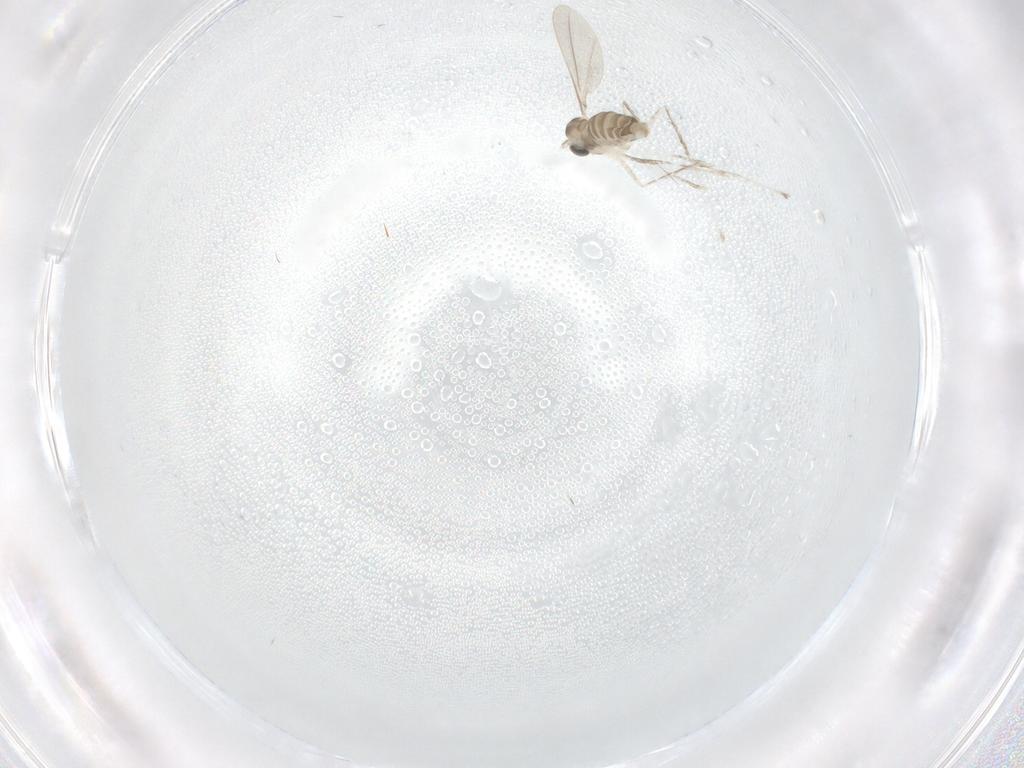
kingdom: Animalia
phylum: Arthropoda
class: Insecta
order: Diptera
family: Cecidomyiidae
